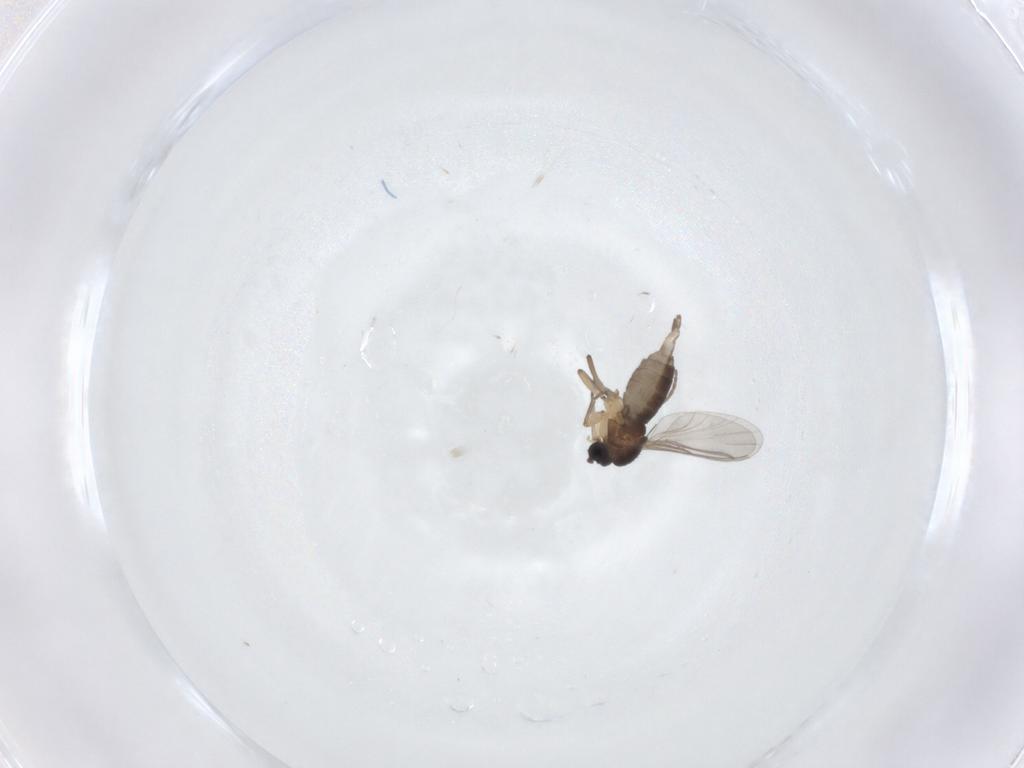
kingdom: Animalia
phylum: Arthropoda
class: Insecta
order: Diptera
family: Sciaridae
